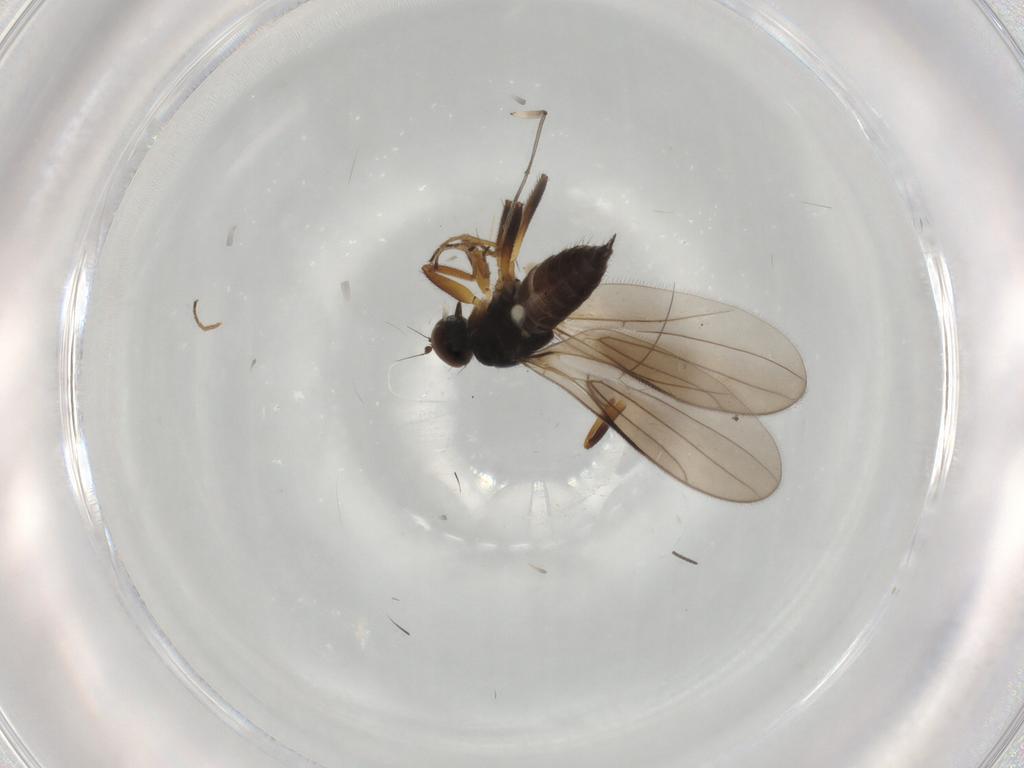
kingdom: Animalia
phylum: Arthropoda
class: Insecta
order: Diptera
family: Hybotidae
